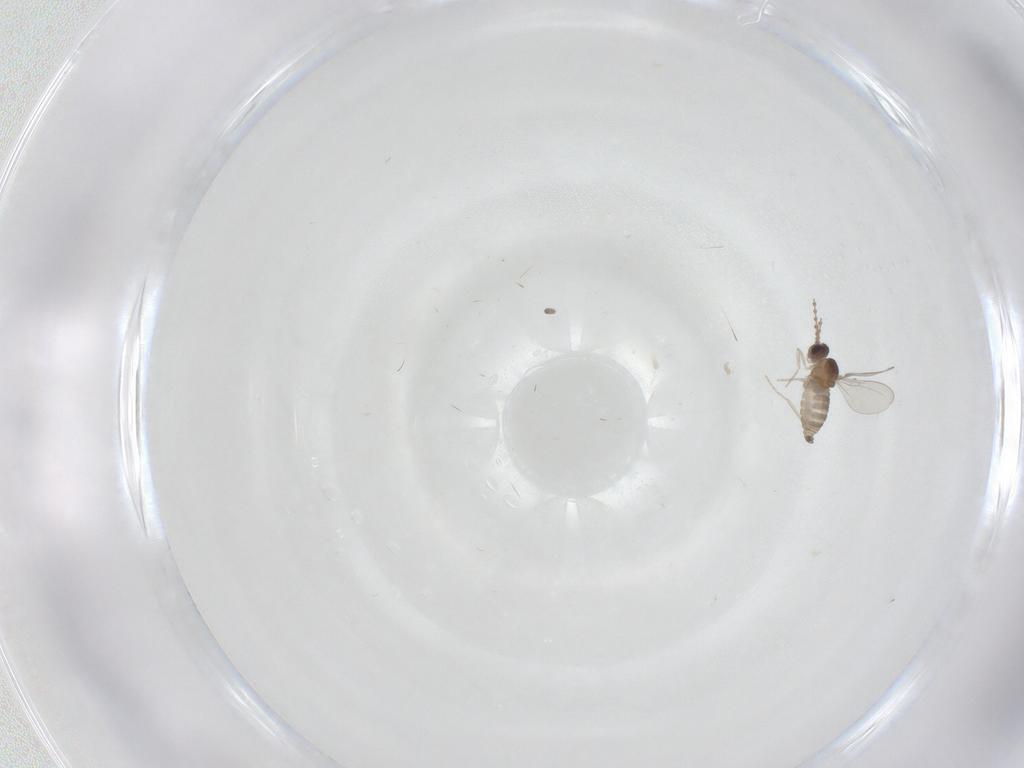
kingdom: Animalia
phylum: Arthropoda
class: Insecta
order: Diptera
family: Cecidomyiidae
